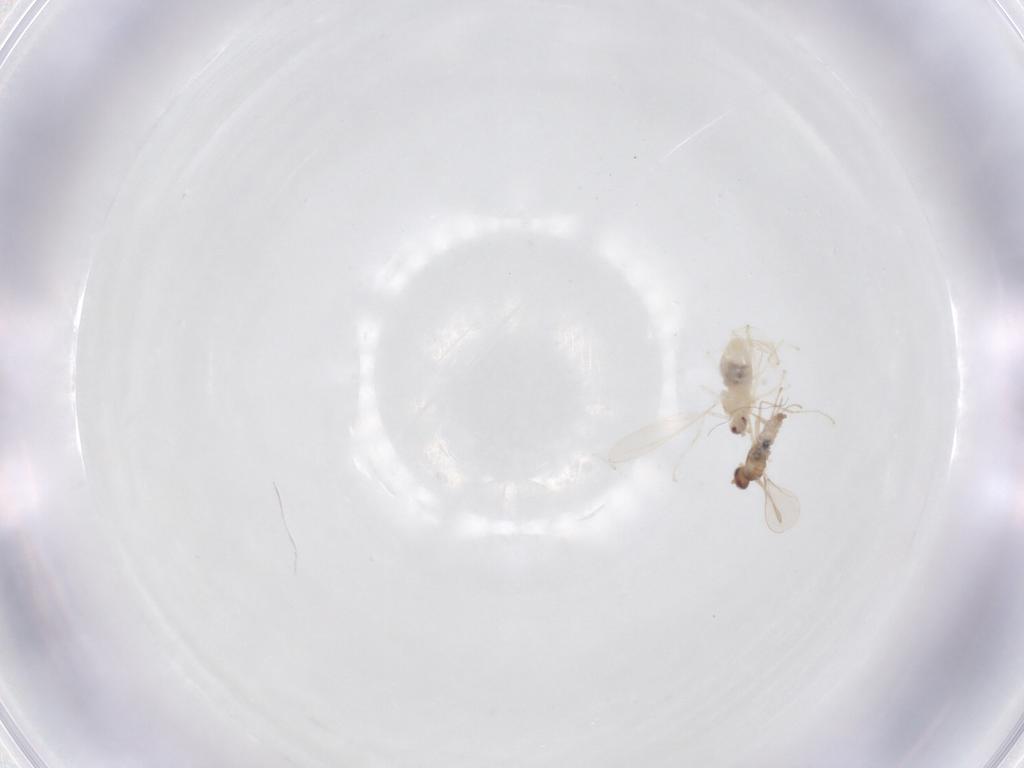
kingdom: Animalia
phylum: Arthropoda
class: Insecta
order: Diptera
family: Cecidomyiidae
